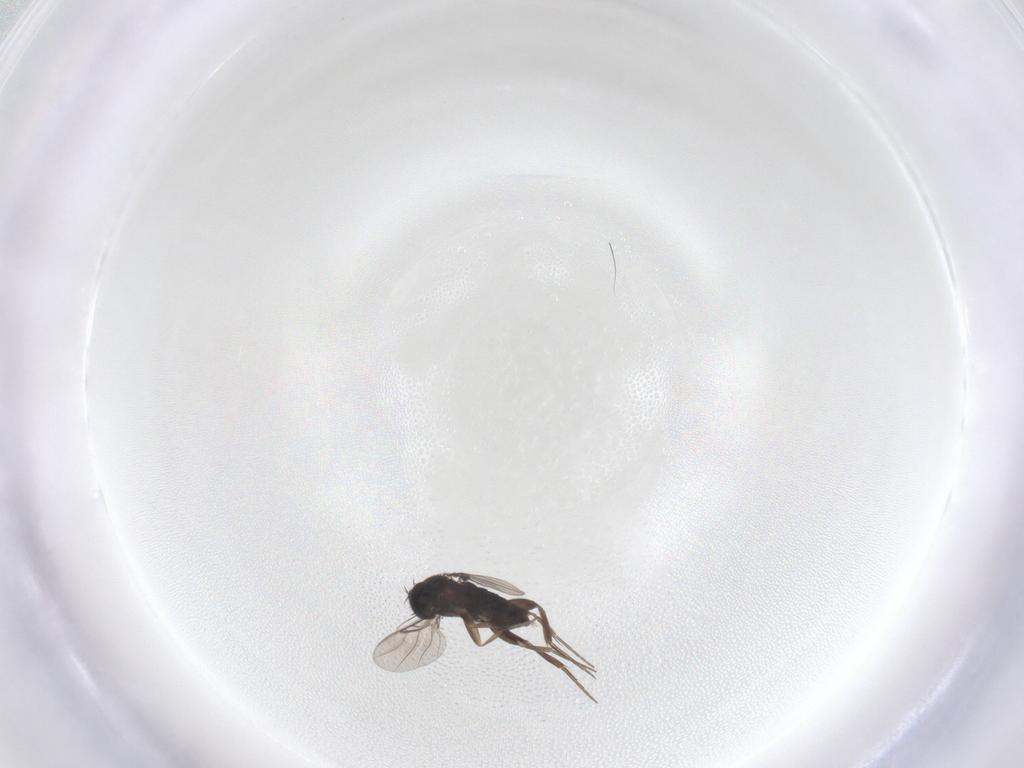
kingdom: Animalia
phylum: Arthropoda
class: Insecta
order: Diptera
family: Phoridae
